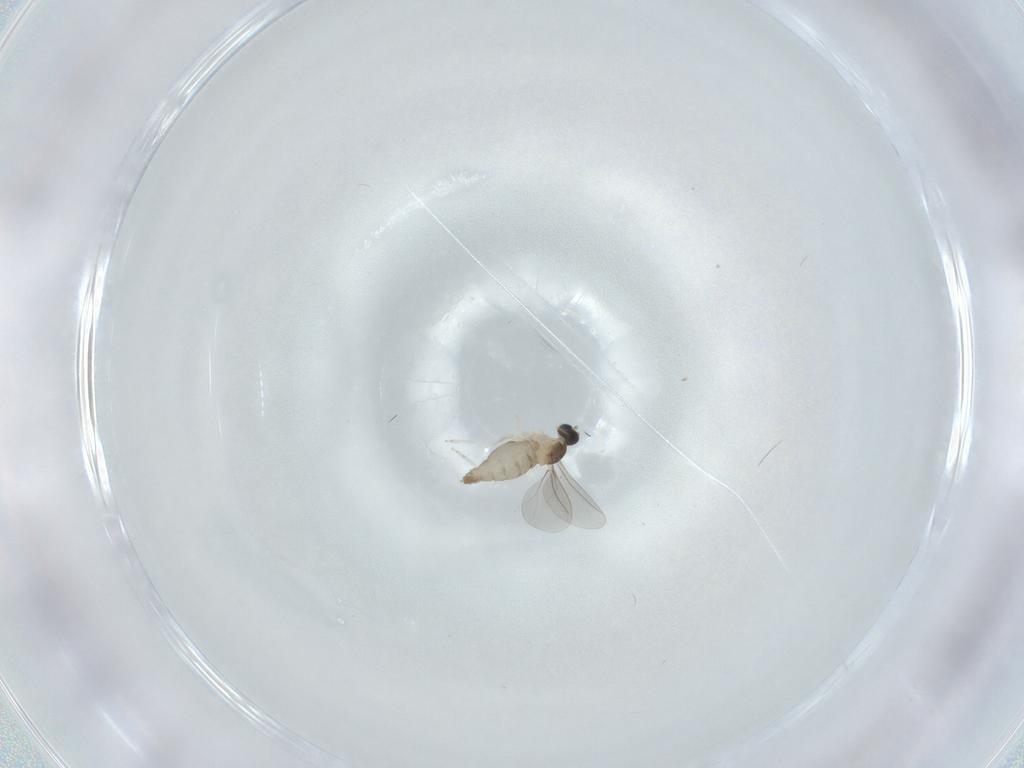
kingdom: Animalia
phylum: Arthropoda
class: Insecta
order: Diptera
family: Cecidomyiidae
